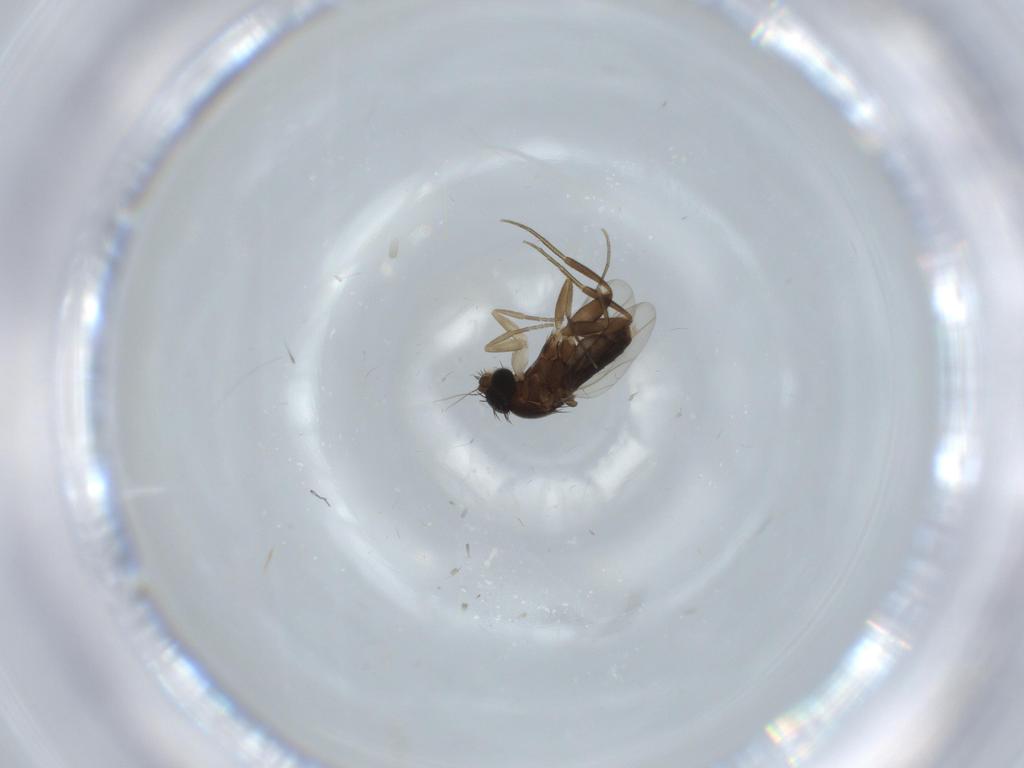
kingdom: Animalia
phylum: Arthropoda
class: Insecta
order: Diptera
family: Phoridae
